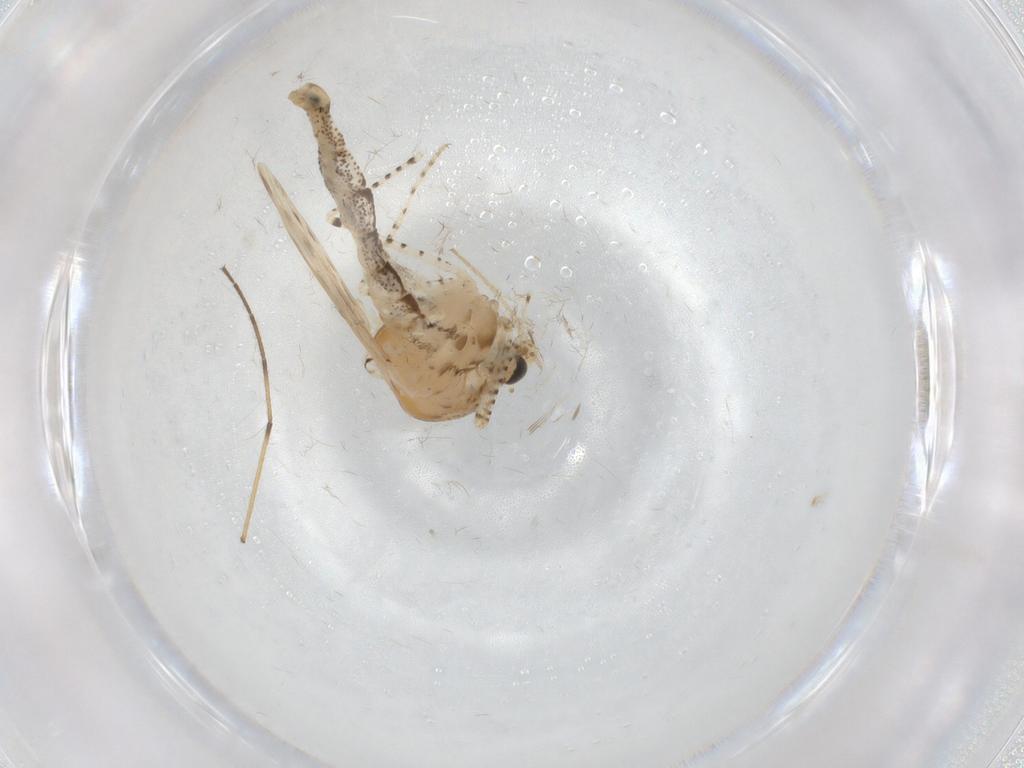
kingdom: Animalia
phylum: Arthropoda
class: Insecta
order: Diptera
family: Chaoboridae
